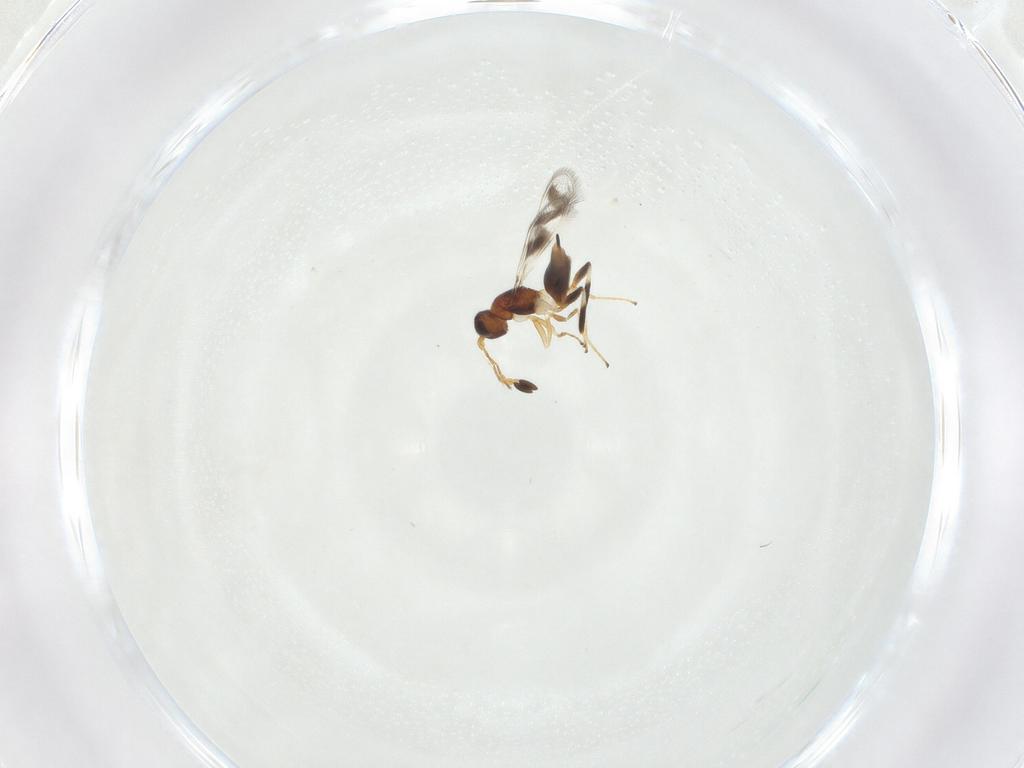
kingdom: Animalia
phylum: Arthropoda
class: Insecta
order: Hymenoptera
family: Mymaridae
